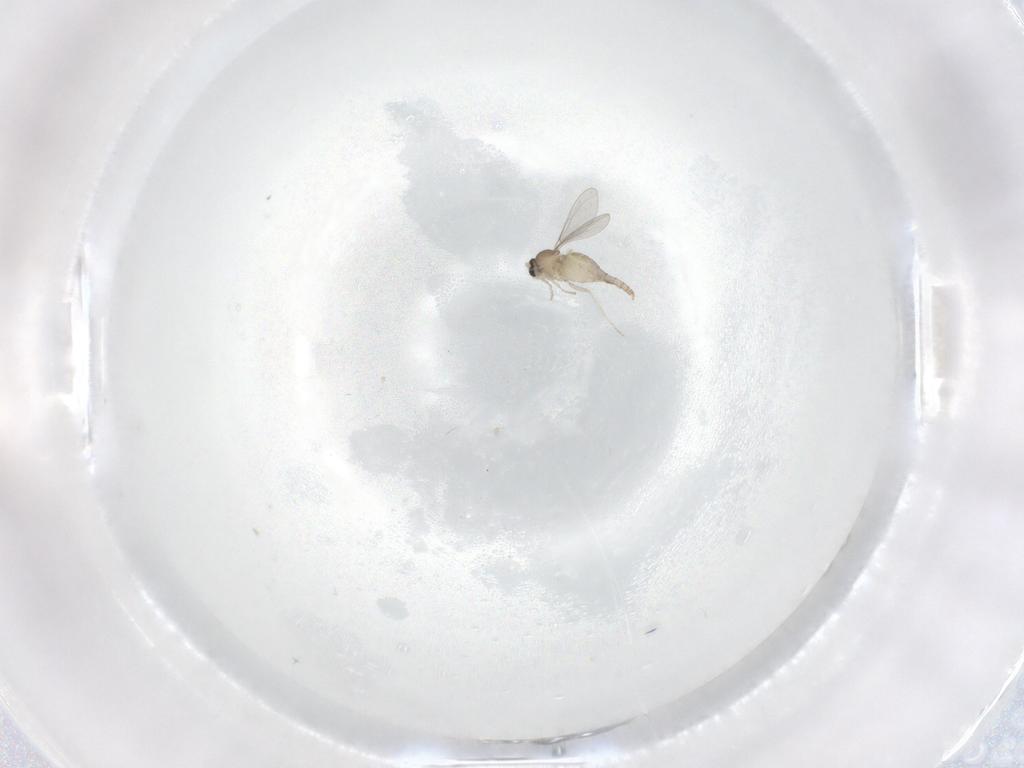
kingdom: Animalia
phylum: Arthropoda
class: Insecta
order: Diptera
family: Cecidomyiidae
